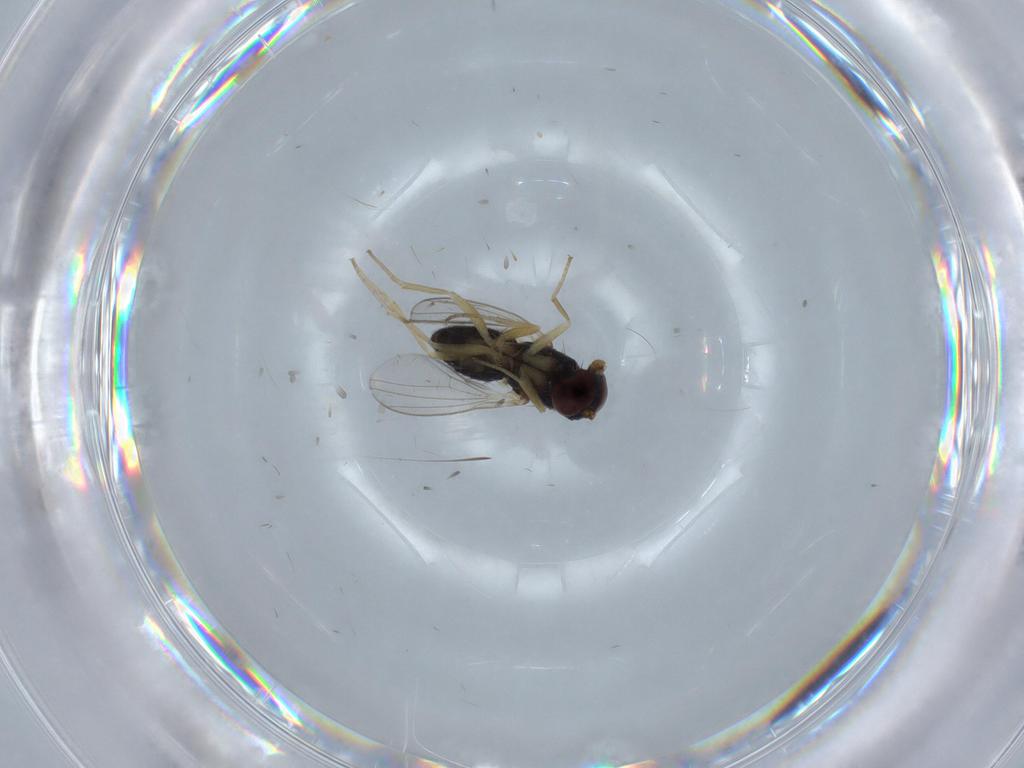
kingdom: Animalia
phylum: Arthropoda
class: Insecta
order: Diptera
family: Dolichopodidae
